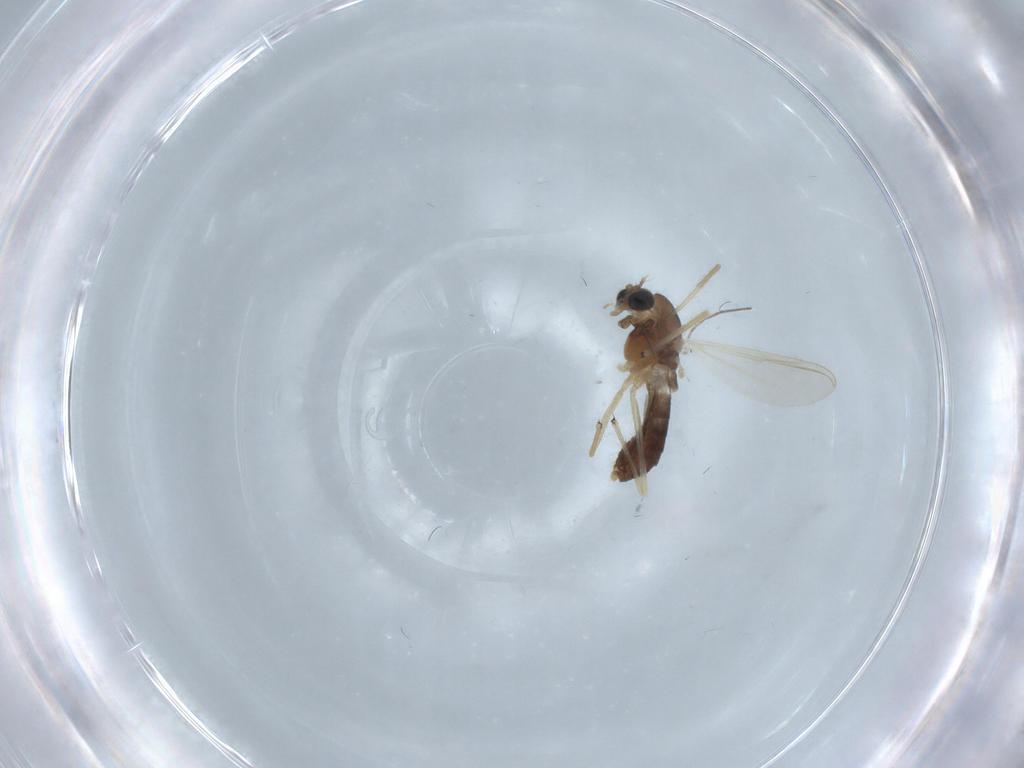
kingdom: Animalia
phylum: Arthropoda
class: Insecta
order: Diptera
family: Chironomidae
